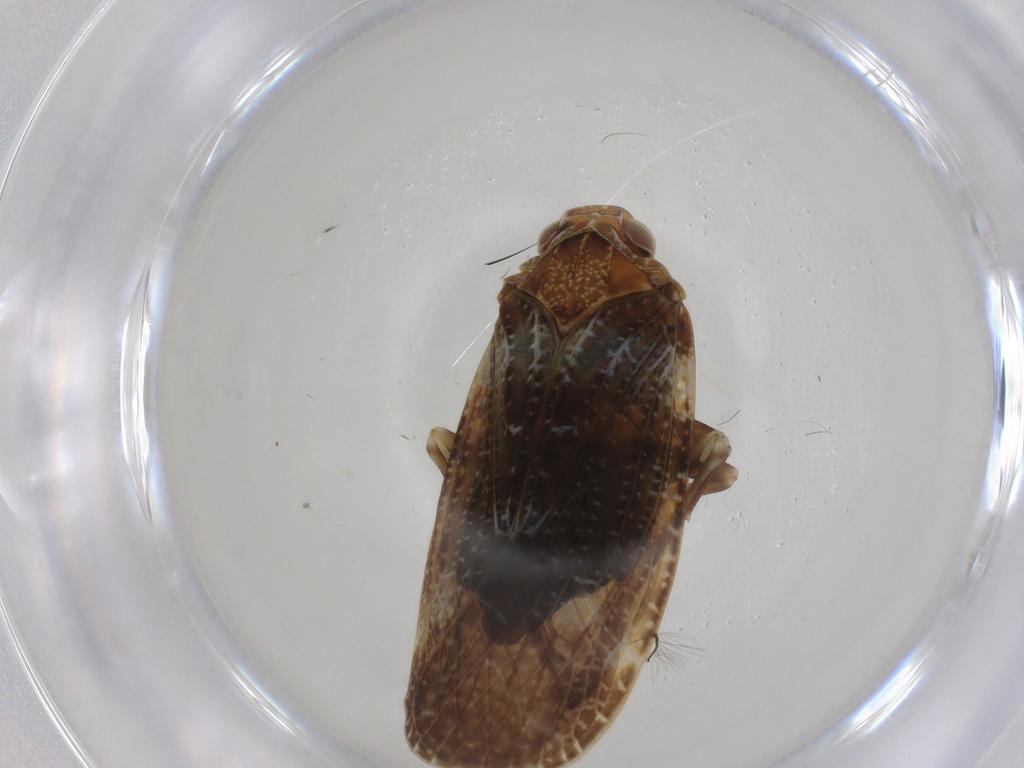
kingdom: Animalia
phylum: Arthropoda
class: Insecta
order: Hemiptera
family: Achilidae
